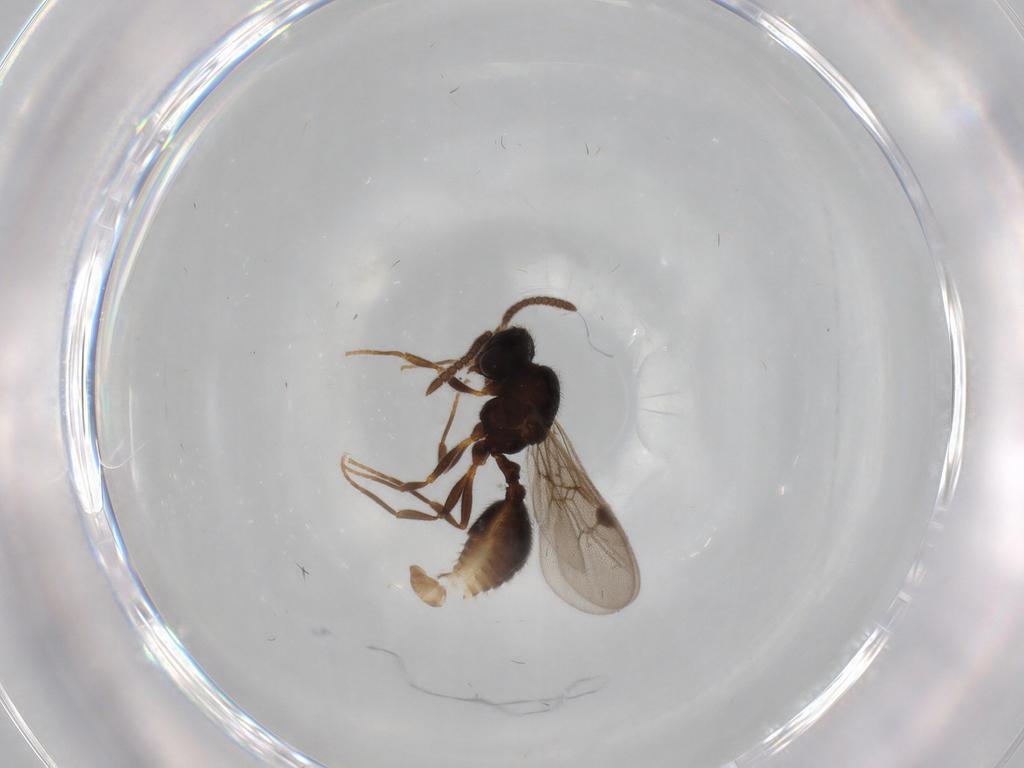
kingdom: Animalia
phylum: Arthropoda
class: Insecta
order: Hymenoptera
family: Formicidae
